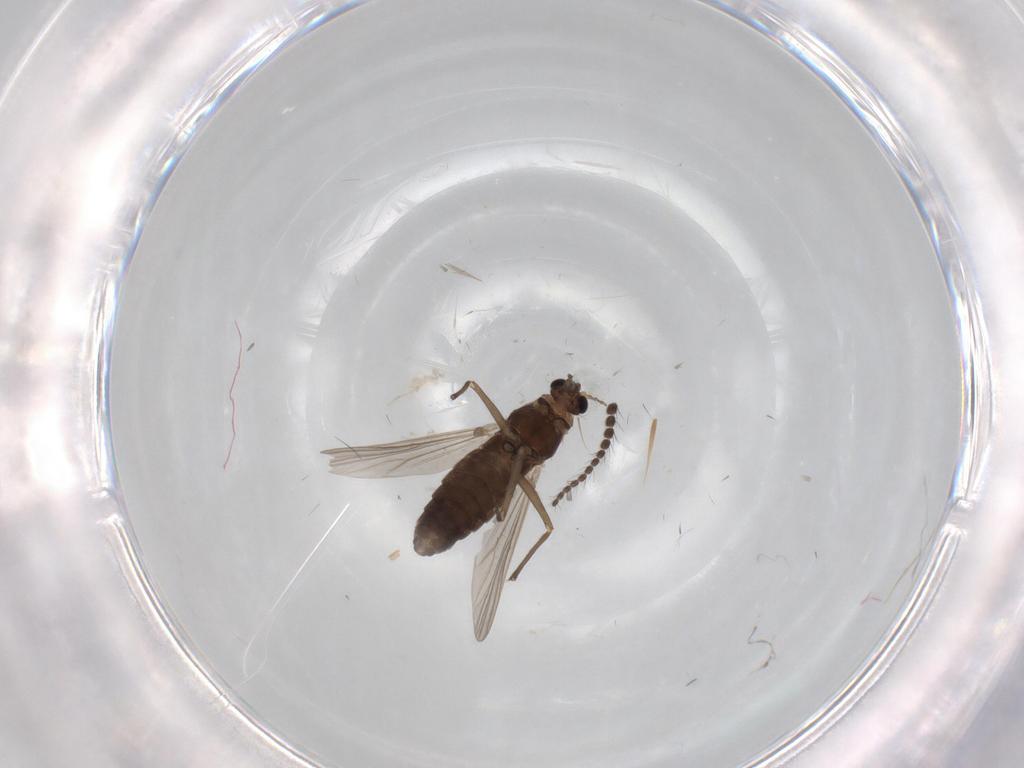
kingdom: Animalia
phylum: Arthropoda
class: Insecta
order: Diptera
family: Chironomidae
